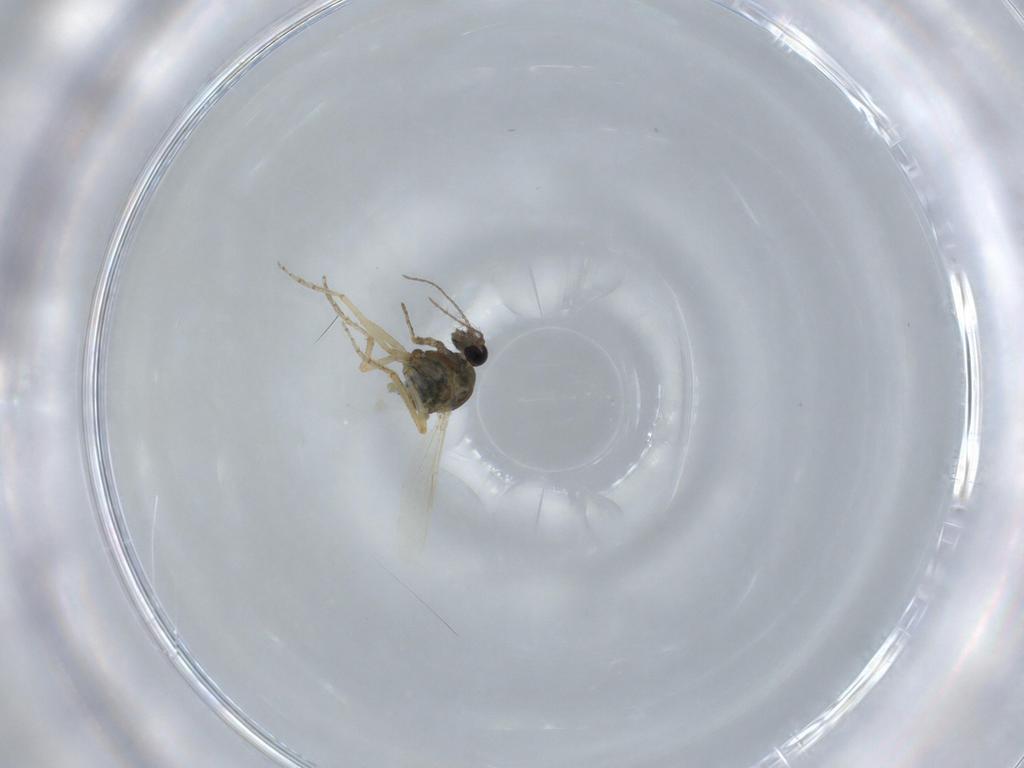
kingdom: Animalia
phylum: Arthropoda
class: Insecta
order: Diptera
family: Ceratopogonidae
